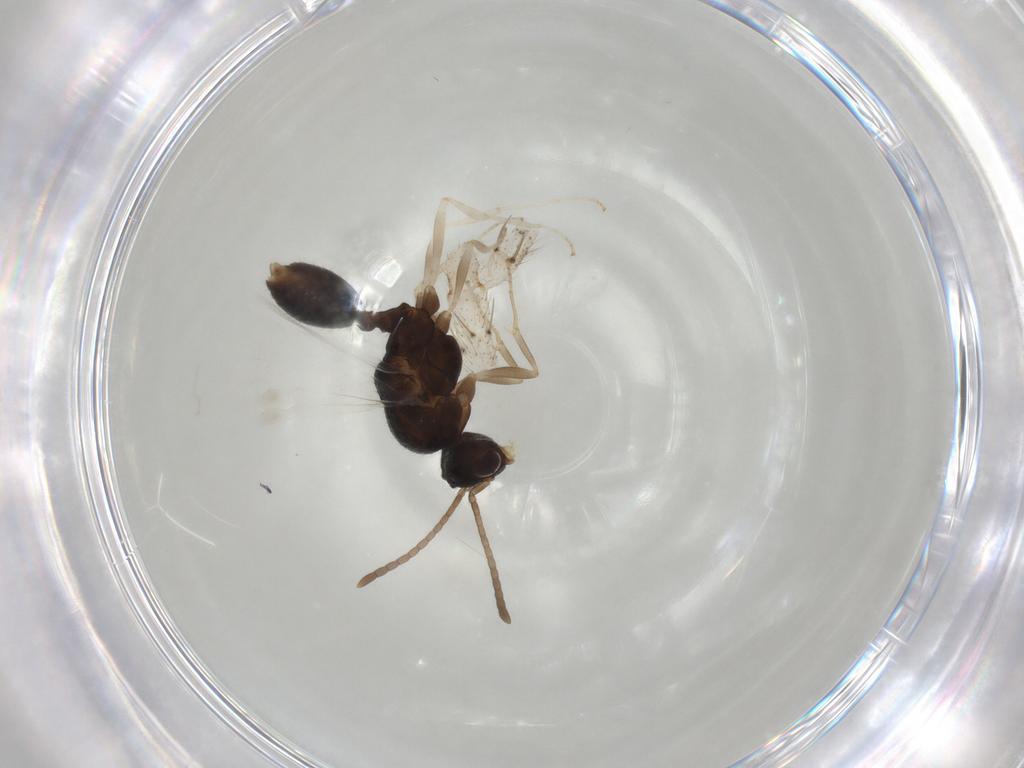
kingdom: Animalia
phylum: Arthropoda
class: Insecta
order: Hymenoptera
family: Formicidae
